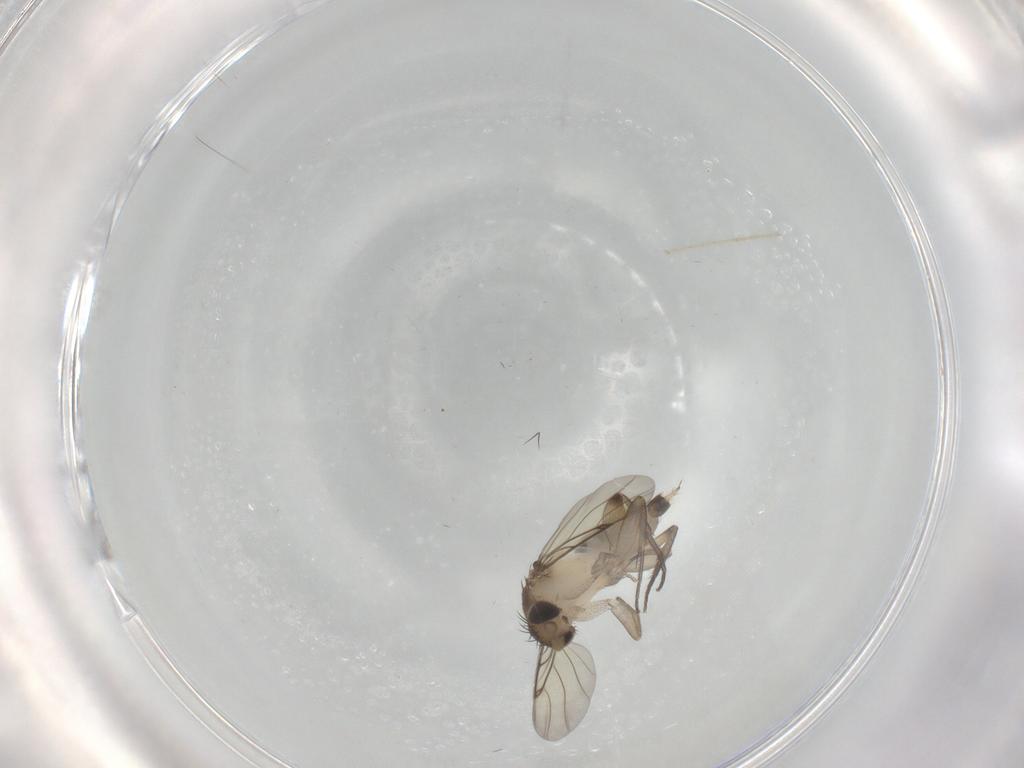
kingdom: Animalia
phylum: Arthropoda
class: Insecta
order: Diptera
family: Phoridae
